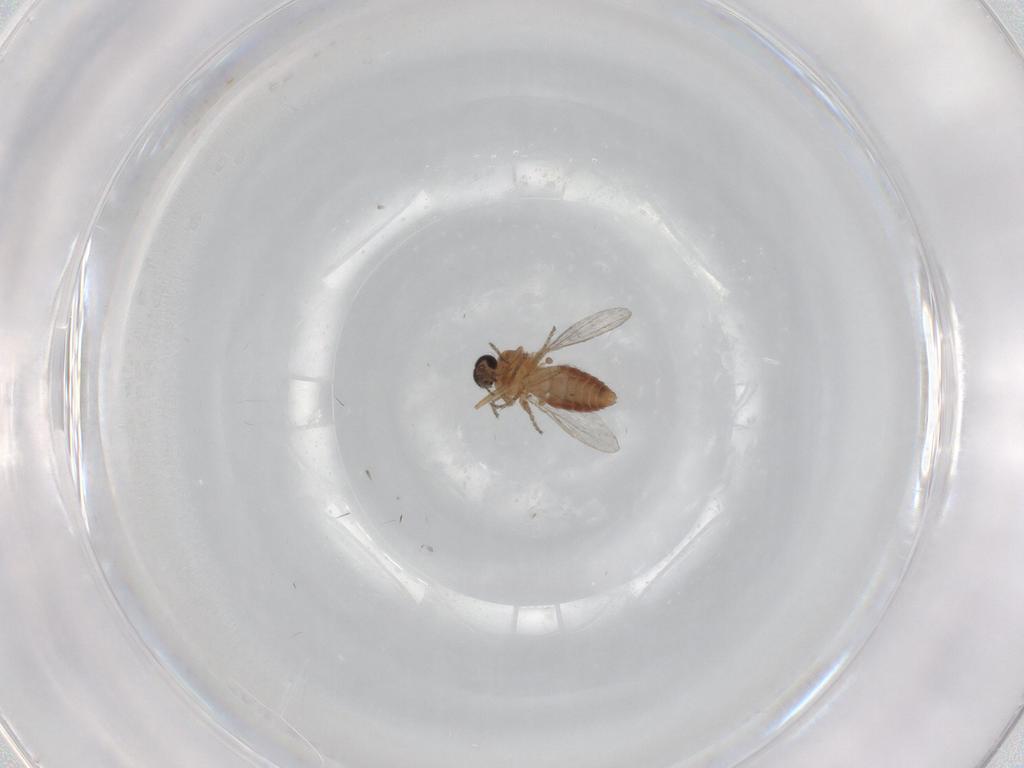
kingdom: Animalia
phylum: Arthropoda
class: Insecta
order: Diptera
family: Ceratopogonidae
